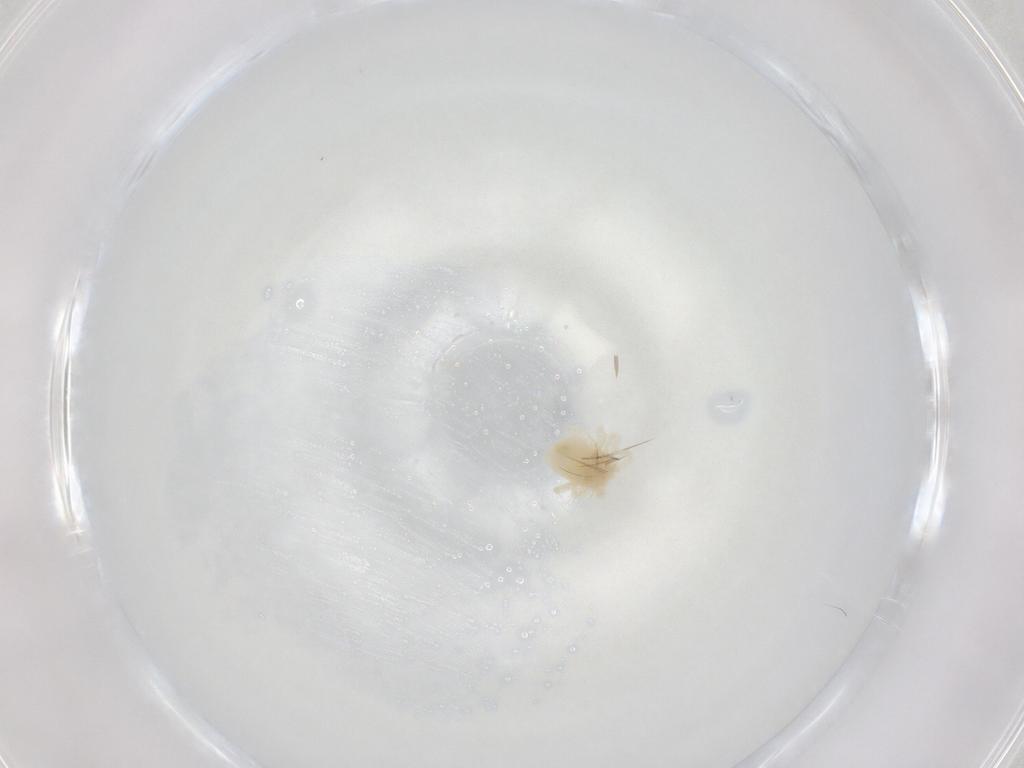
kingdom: Animalia
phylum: Arthropoda
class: Arachnida
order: Trombidiformes
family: Anystidae
